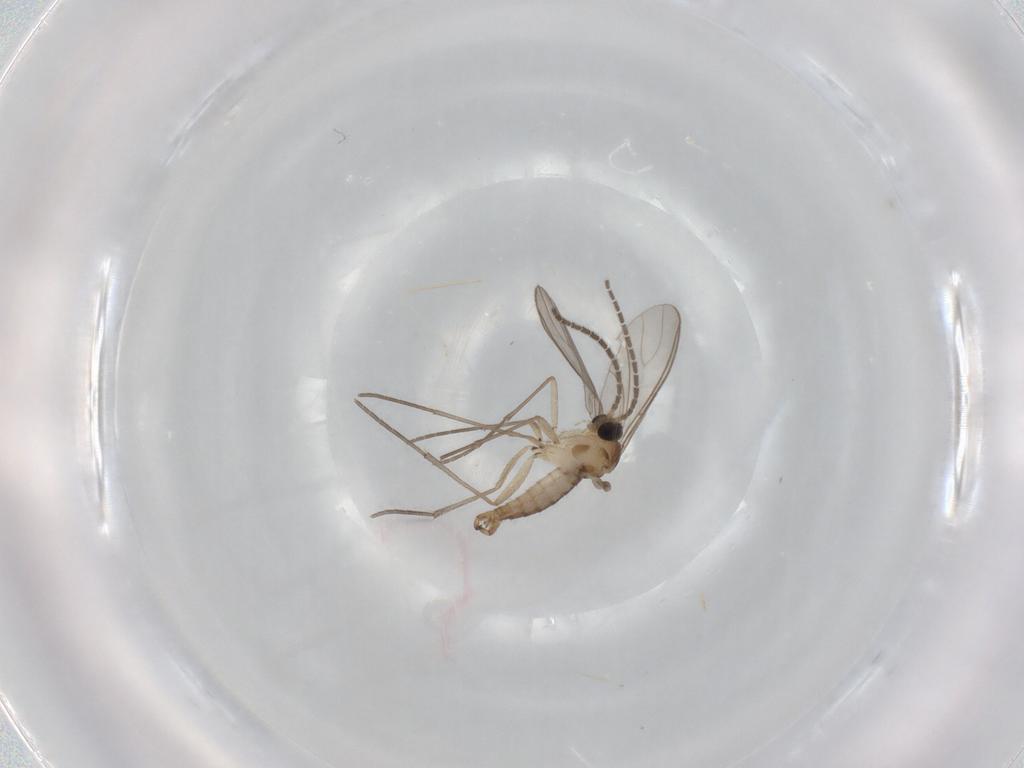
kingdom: Animalia
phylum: Arthropoda
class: Insecta
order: Diptera
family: Sciaridae
